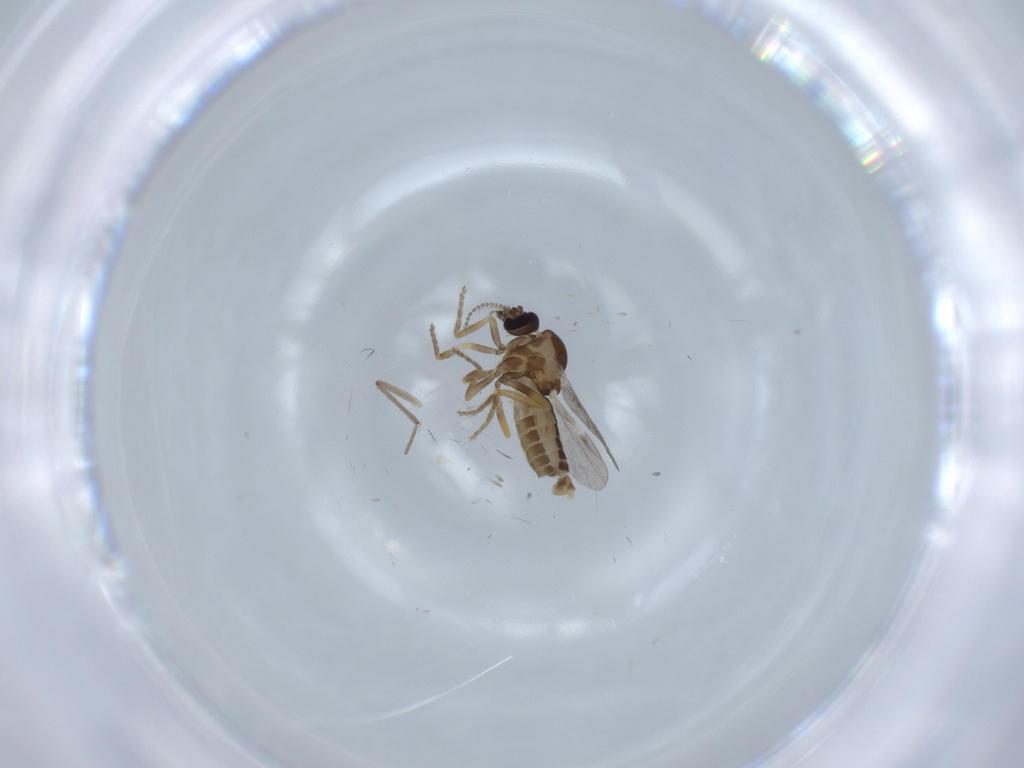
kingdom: Animalia
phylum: Arthropoda
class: Insecta
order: Diptera
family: Chironomidae
